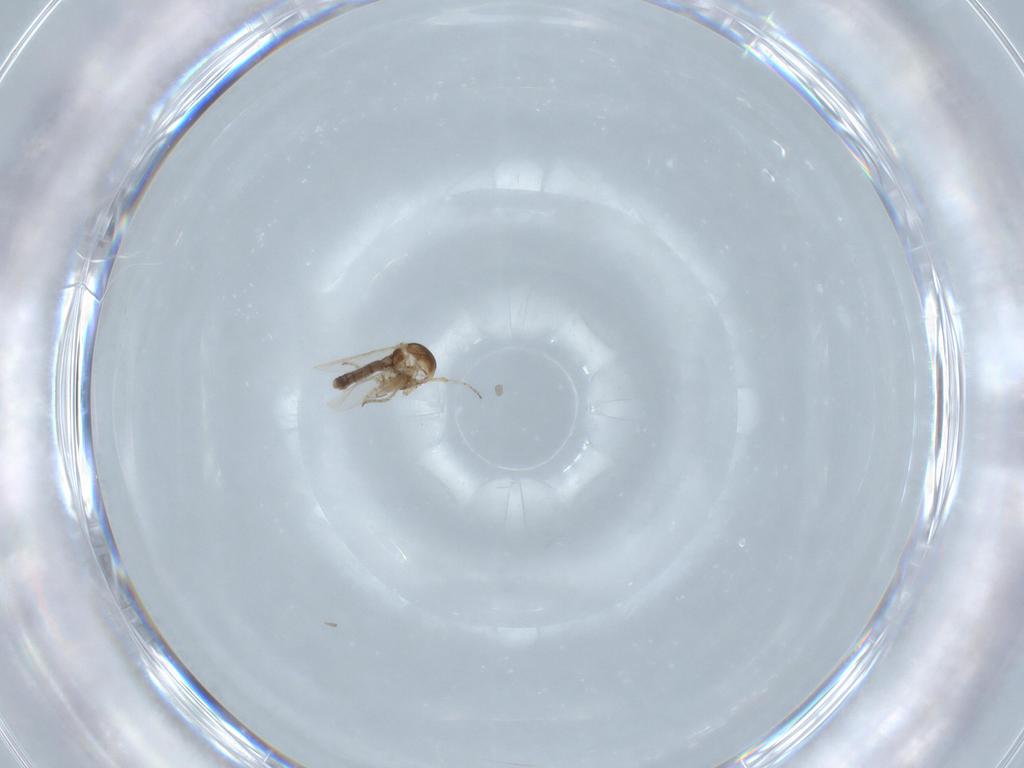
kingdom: Animalia
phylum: Arthropoda
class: Insecta
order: Diptera
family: Ceratopogonidae
